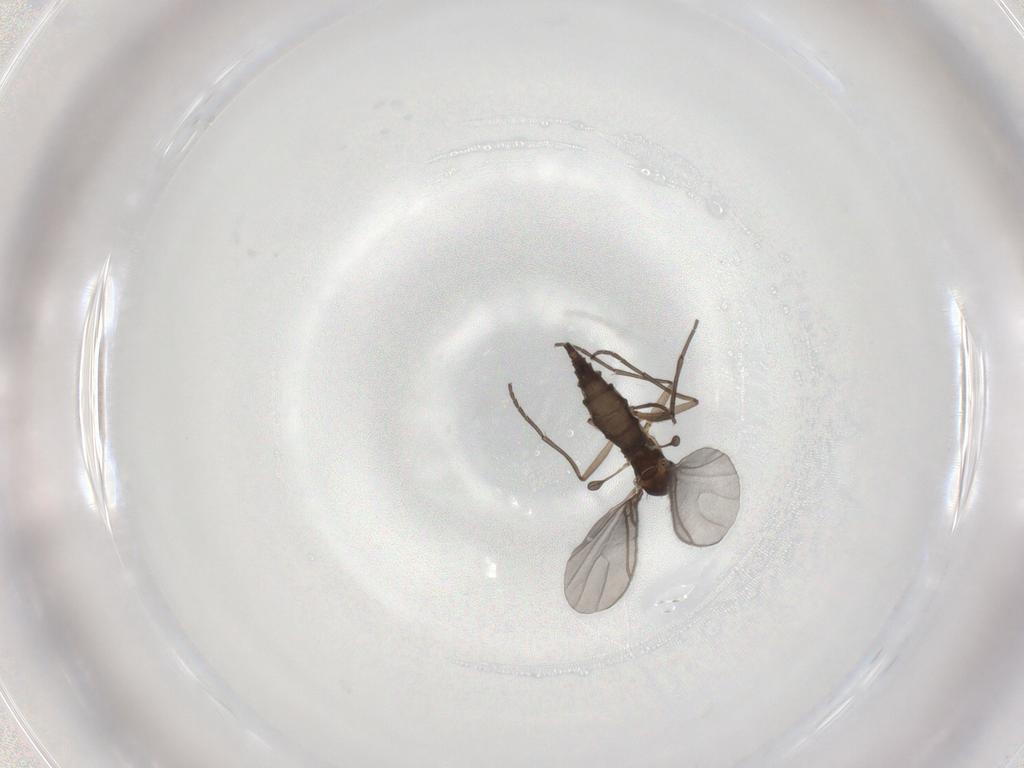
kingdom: Animalia
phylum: Arthropoda
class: Insecta
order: Diptera
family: Sciaridae
